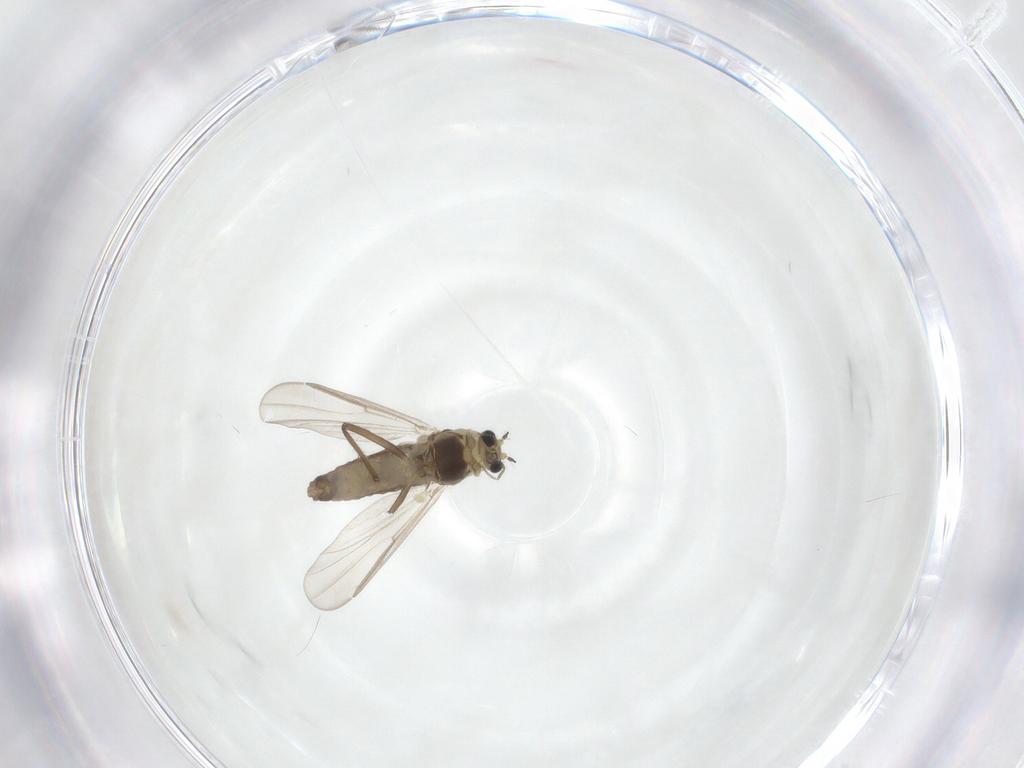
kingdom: Animalia
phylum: Arthropoda
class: Insecta
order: Diptera
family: Chironomidae
